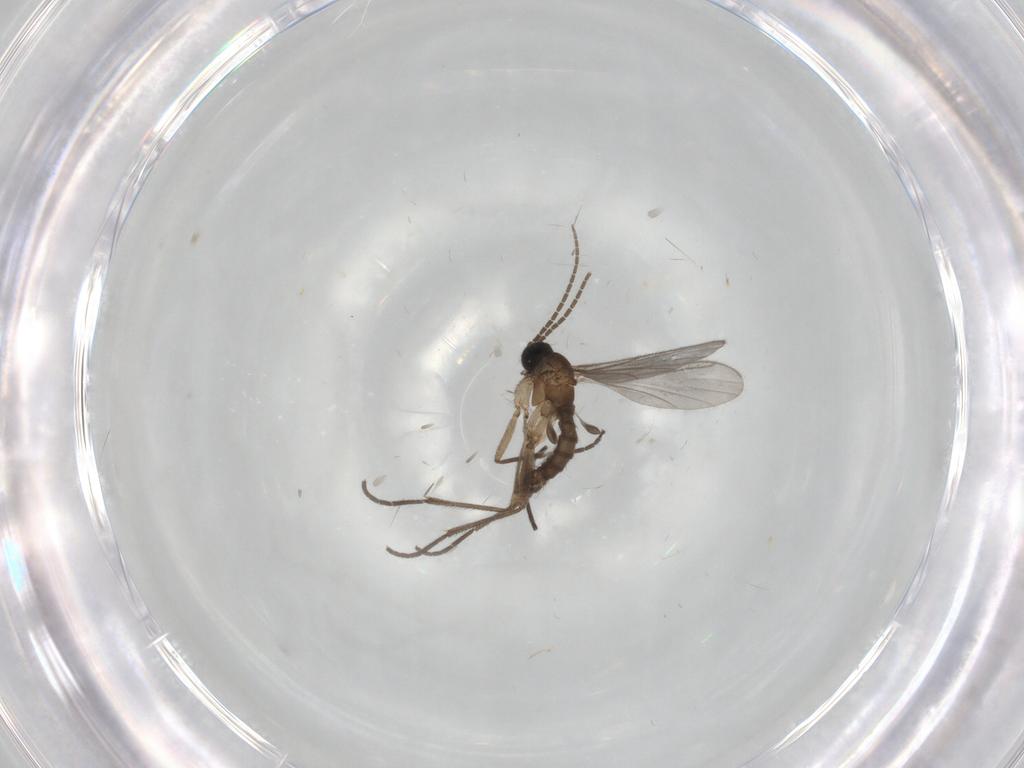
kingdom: Animalia
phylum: Arthropoda
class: Insecta
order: Diptera
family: Sciaridae
